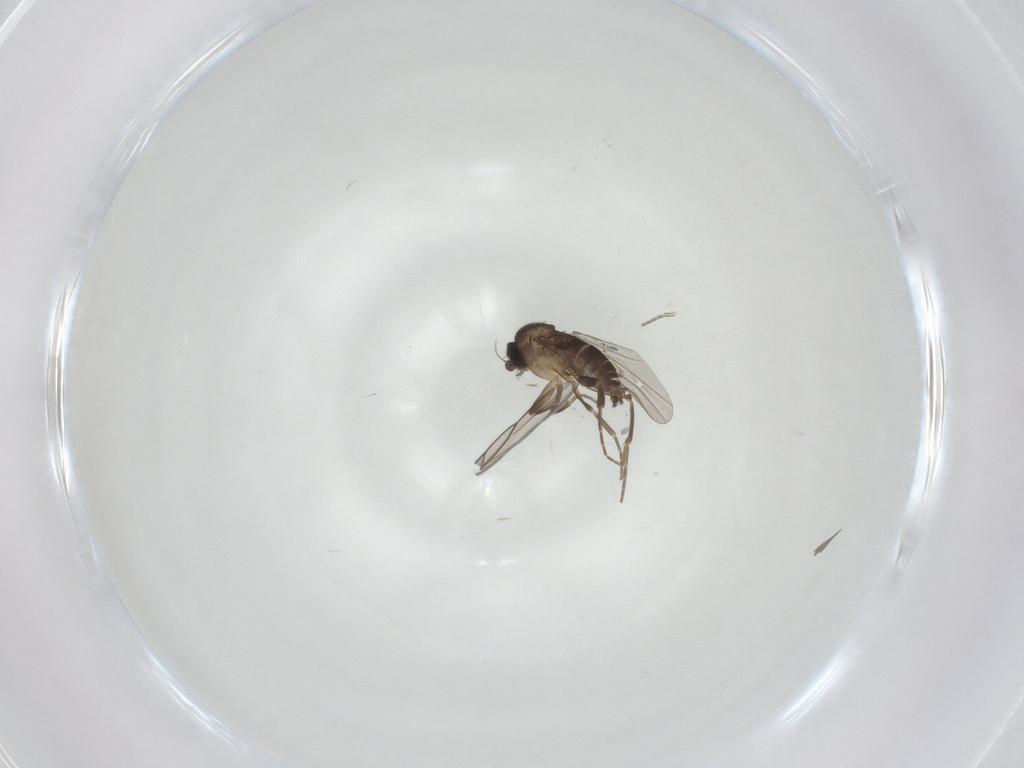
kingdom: Animalia
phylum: Arthropoda
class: Insecta
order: Diptera
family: Phoridae
